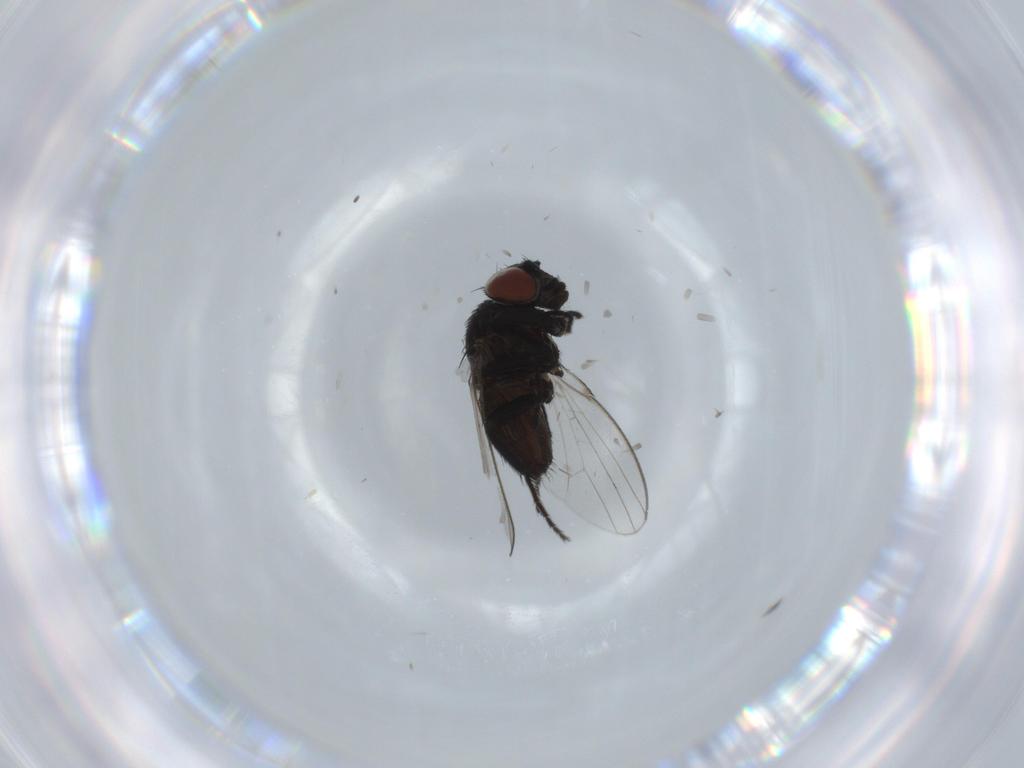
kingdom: Animalia
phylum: Arthropoda
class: Insecta
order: Diptera
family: Milichiidae
